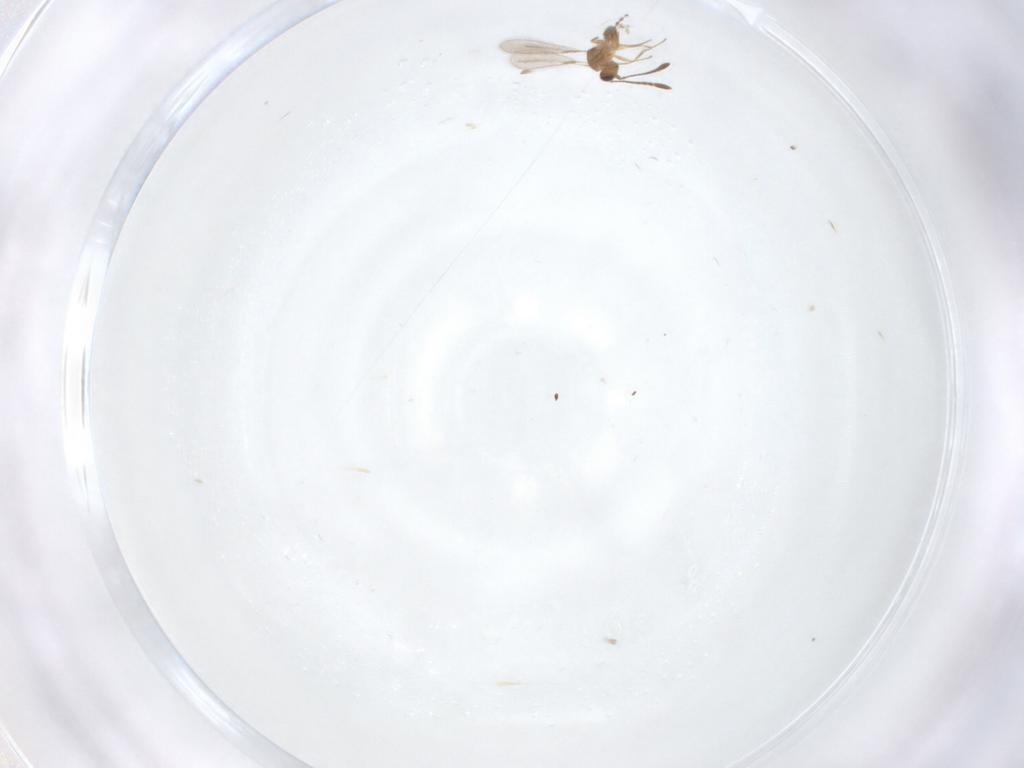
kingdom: Animalia
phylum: Arthropoda
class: Insecta
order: Hymenoptera
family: Mymaridae
